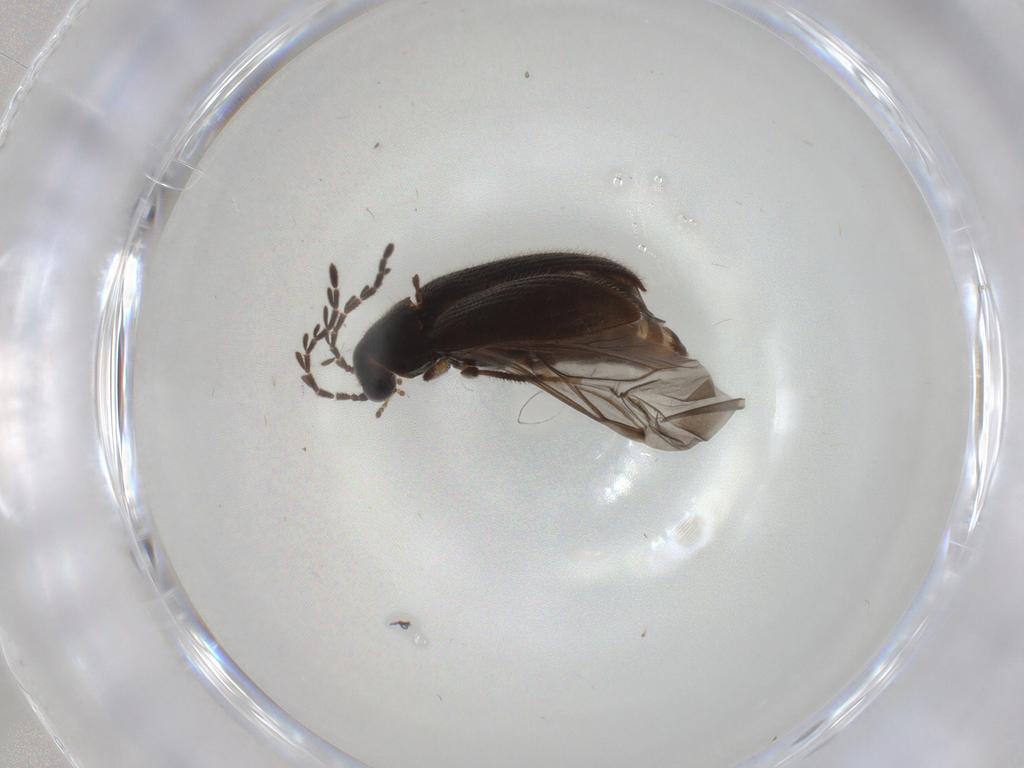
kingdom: Animalia
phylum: Arthropoda
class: Insecta
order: Coleoptera
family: Ptilodactylidae
